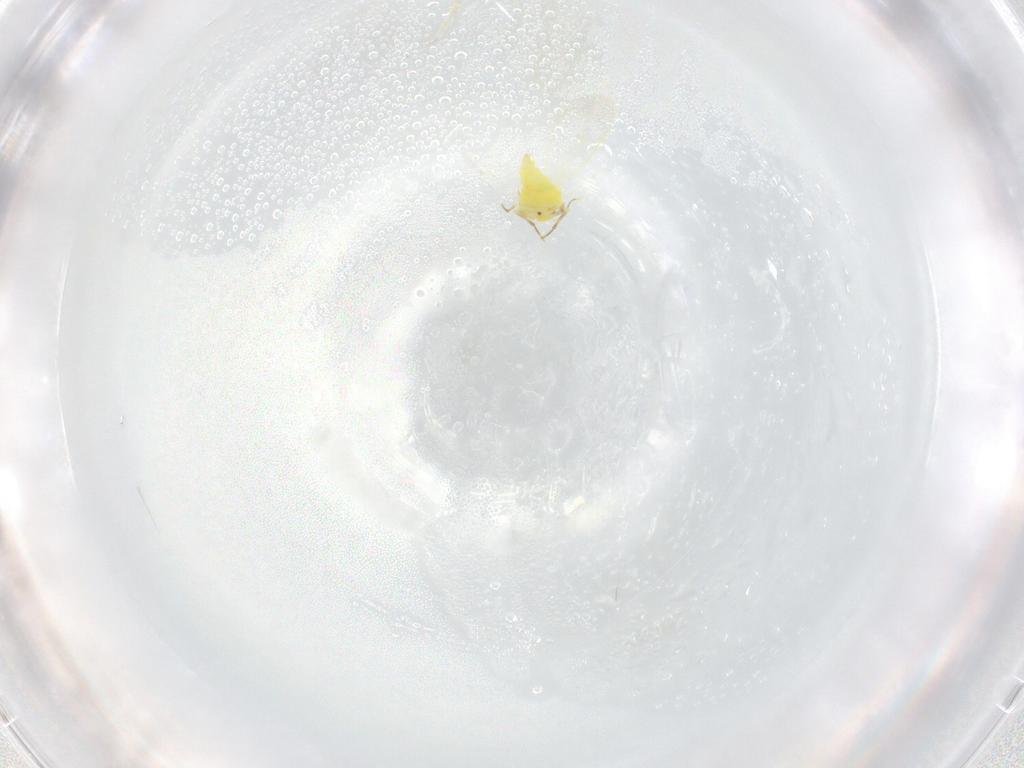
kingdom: Animalia
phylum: Arthropoda
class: Insecta
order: Hemiptera
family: Aleyrodidae
